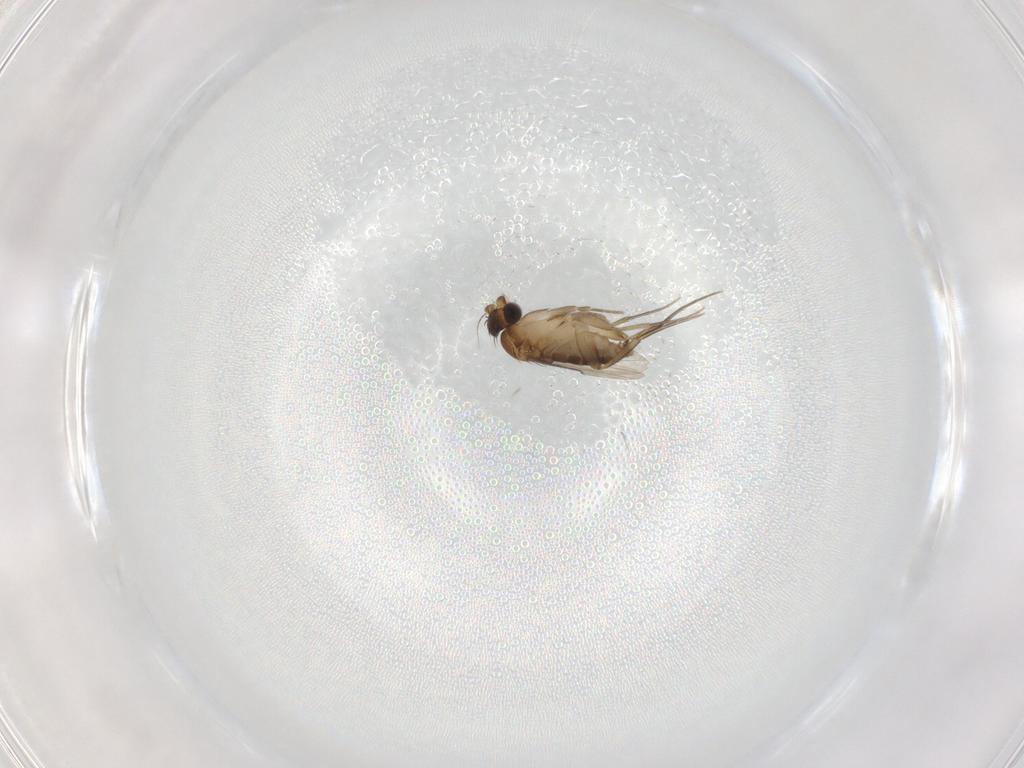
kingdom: Animalia
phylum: Arthropoda
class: Insecta
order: Diptera
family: Phoridae
